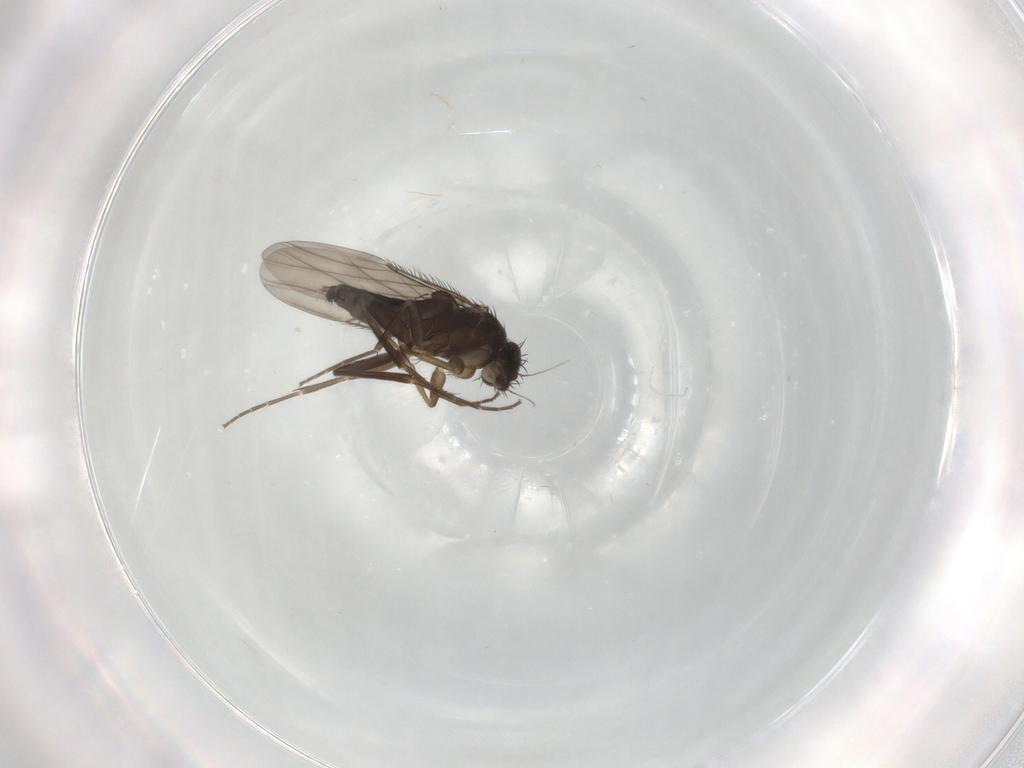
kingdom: Animalia
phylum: Arthropoda
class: Insecta
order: Diptera
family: Phoridae
